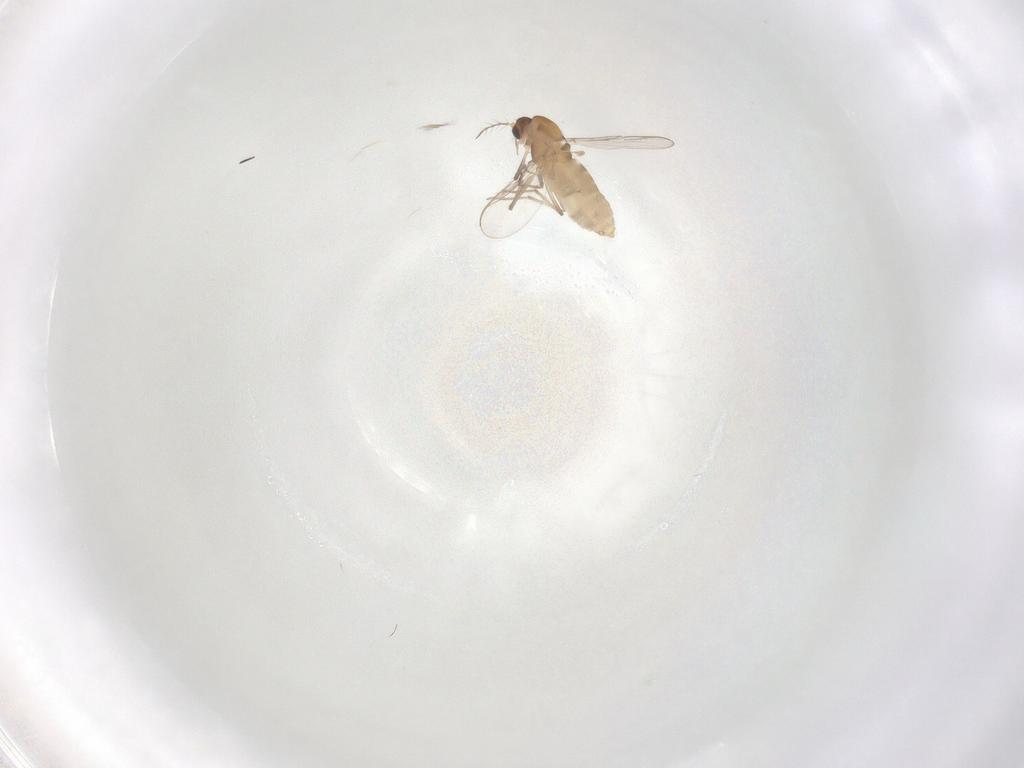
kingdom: Animalia
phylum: Arthropoda
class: Insecta
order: Diptera
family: Chironomidae
